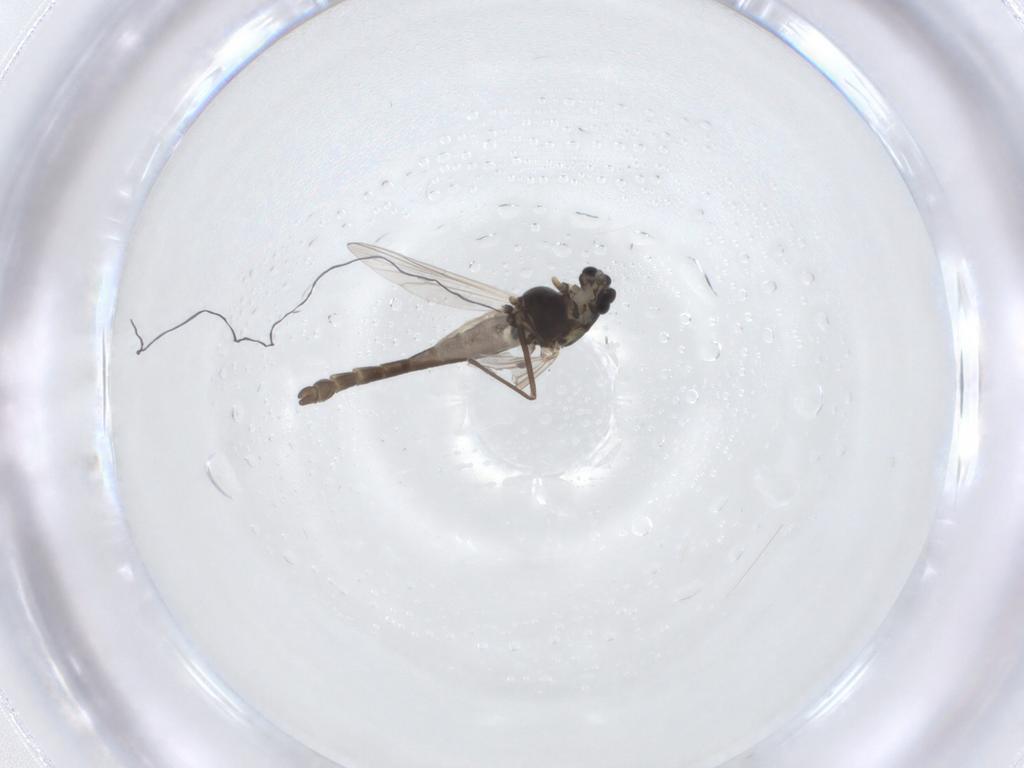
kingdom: Animalia
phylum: Arthropoda
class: Insecta
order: Diptera
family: Chironomidae
